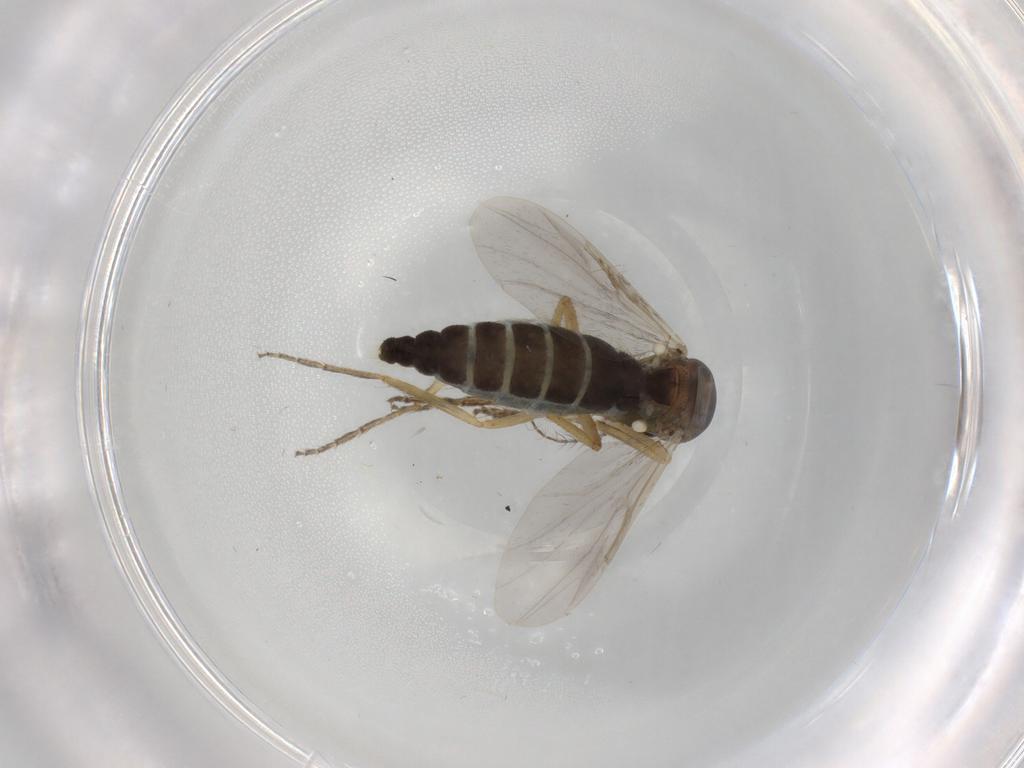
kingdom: Animalia
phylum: Arthropoda
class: Insecta
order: Diptera
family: Ceratopogonidae
